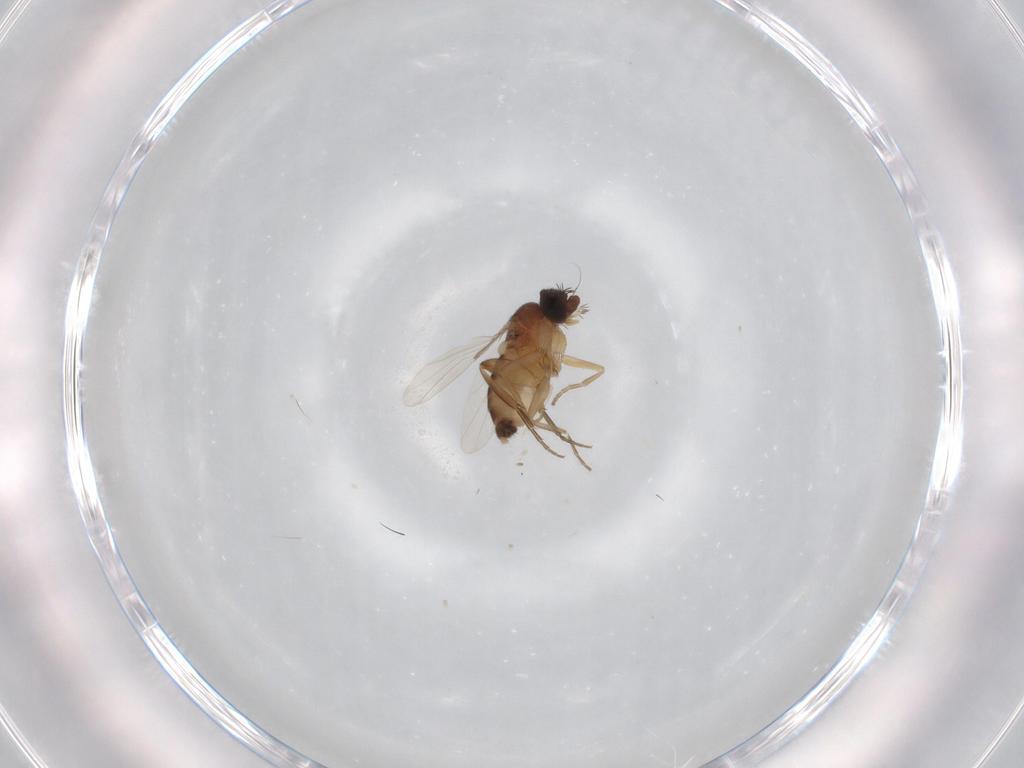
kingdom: Animalia
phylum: Arthropoda
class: Insecta
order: Diptera
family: Phoridae
